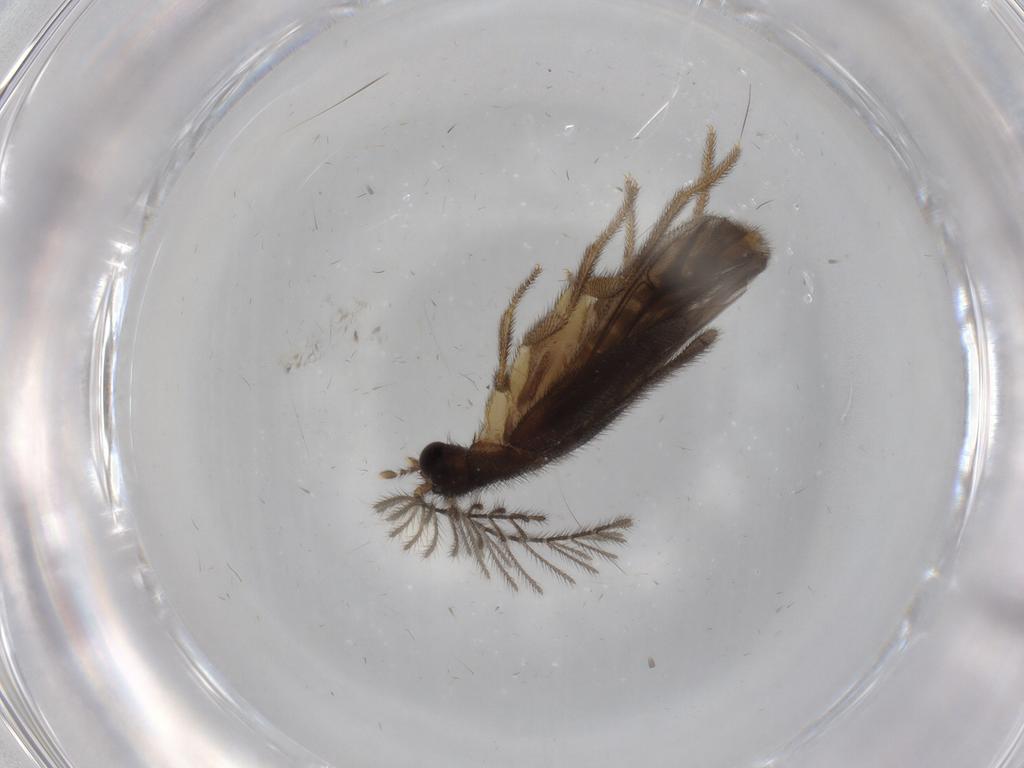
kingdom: Animalia
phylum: Arthropoda
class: Insecta
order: Coleoptera
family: Phengodidae
